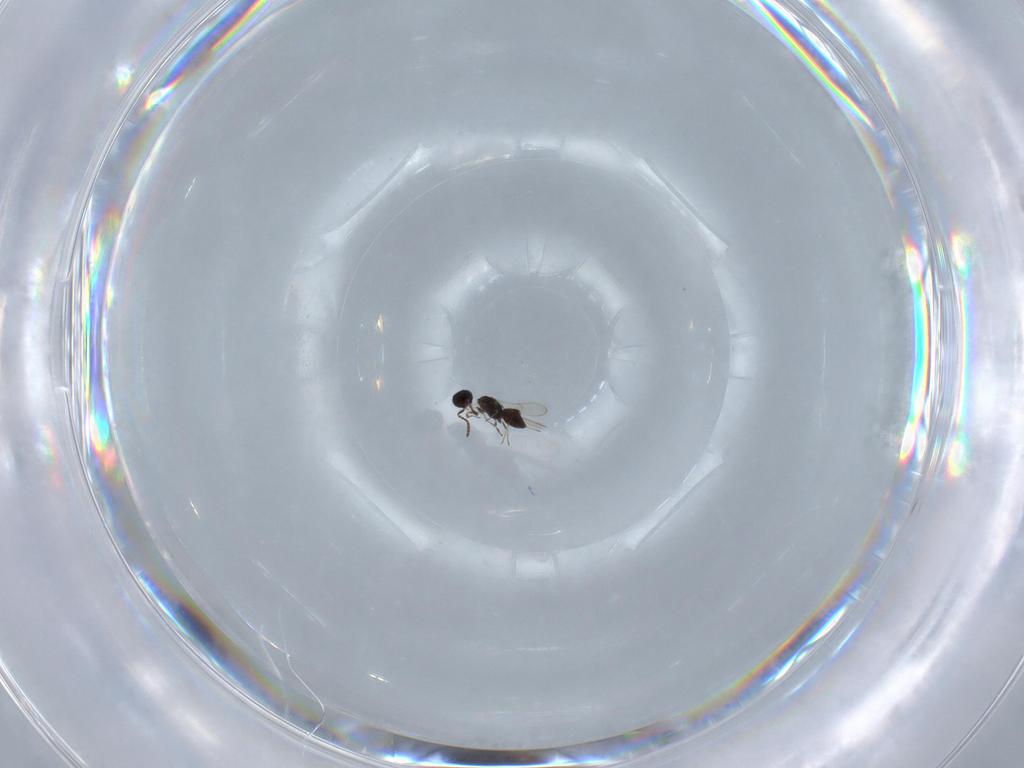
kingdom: Animalia
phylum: Arthropoda
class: Insecta
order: Hymenoptera
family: Scelionidae
